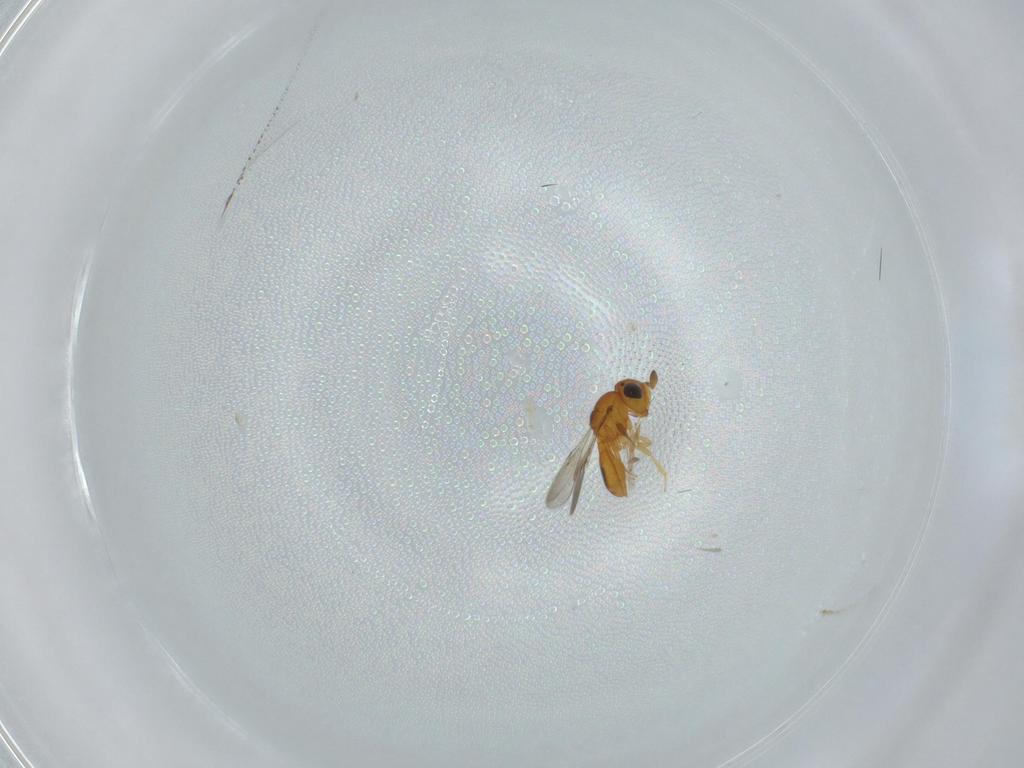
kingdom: Animalia
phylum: Arthropoda
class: Insecta
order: Hymenoptera
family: Scelionidae
